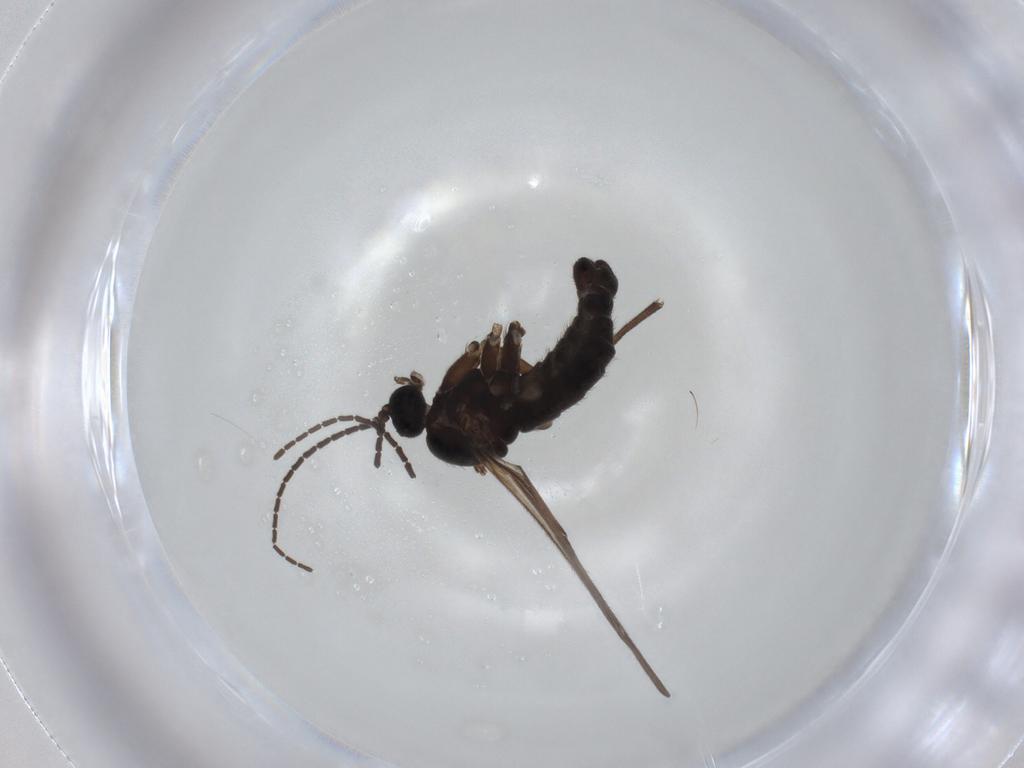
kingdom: Animalia
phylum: Arthropoda
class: Insecta
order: Diptera
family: Sciaridae
